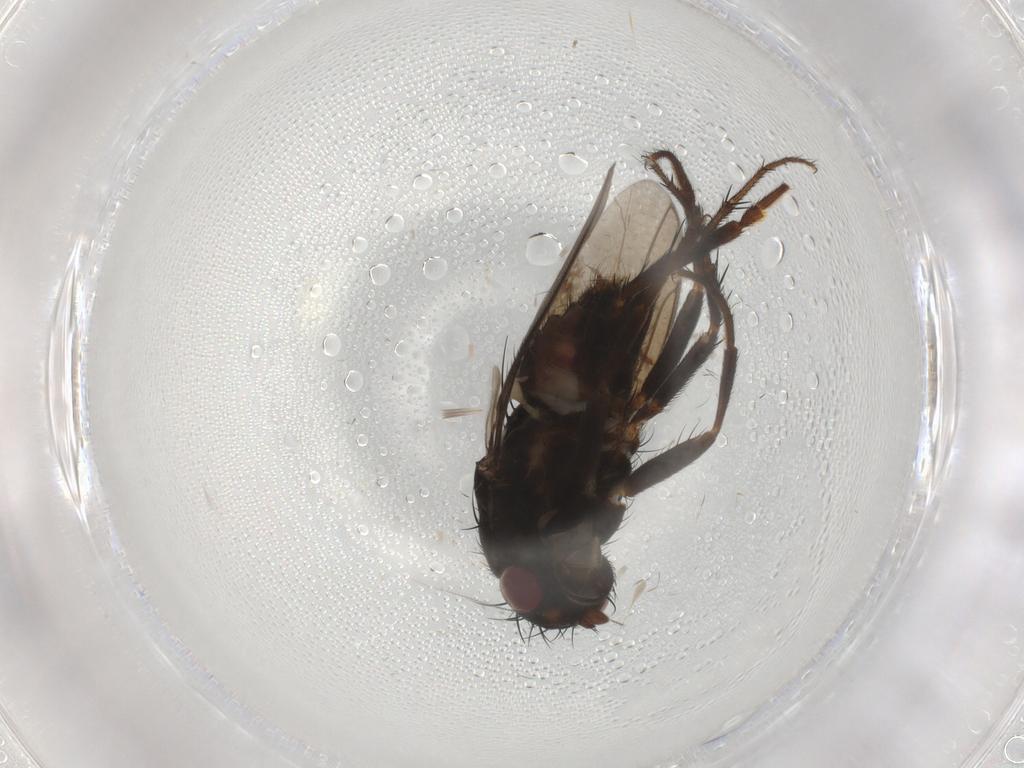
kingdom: Animalia
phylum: Arthropoda
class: Insecta
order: Diptera
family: Sphaeroceridae
